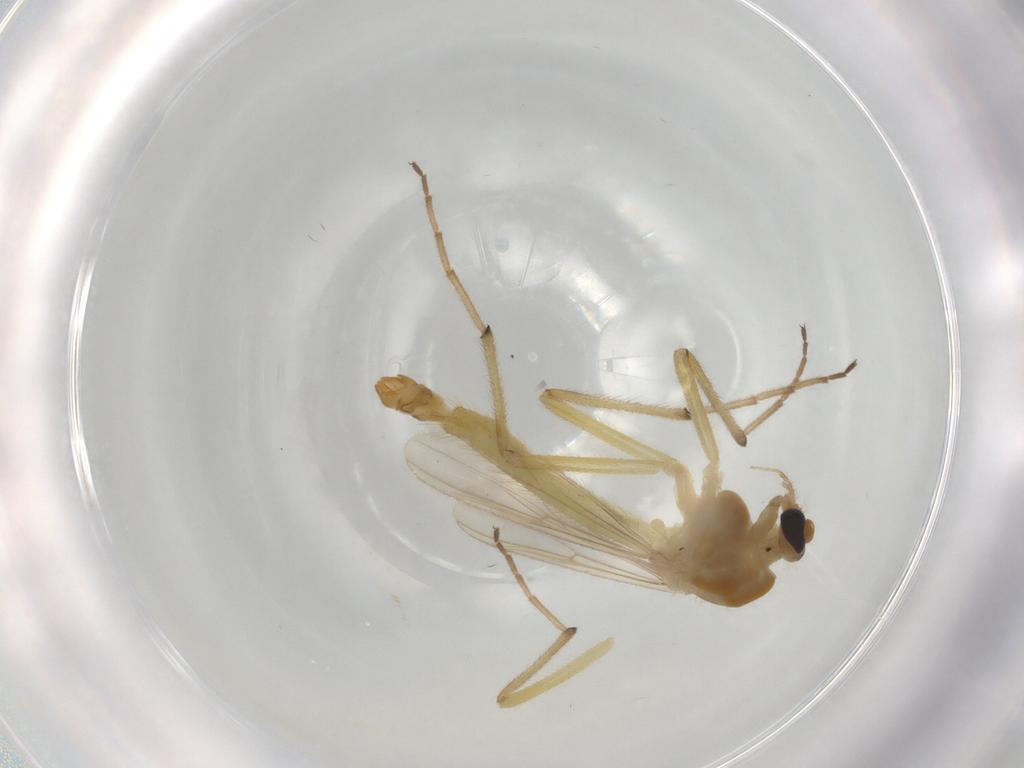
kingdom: Animalia
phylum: Arthropoda
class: Insecta
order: Diptera
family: Chironomidae
